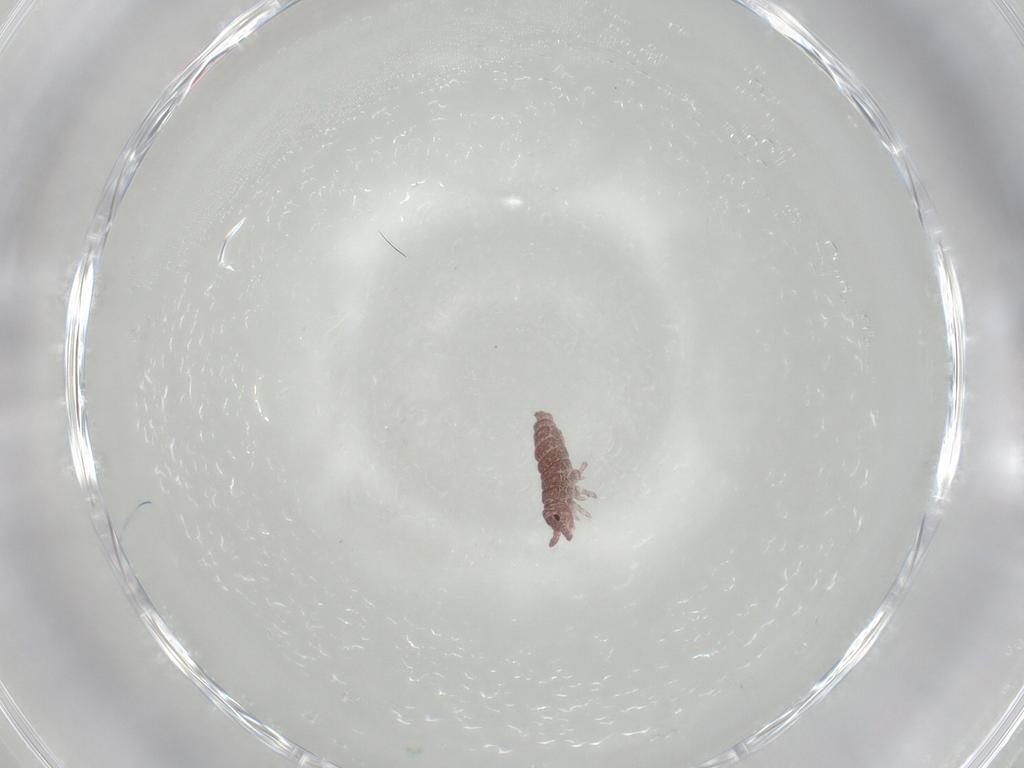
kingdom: Animalia
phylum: Arthropoda
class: Collembola
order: Poduromorpha
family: Hypogastruridae
